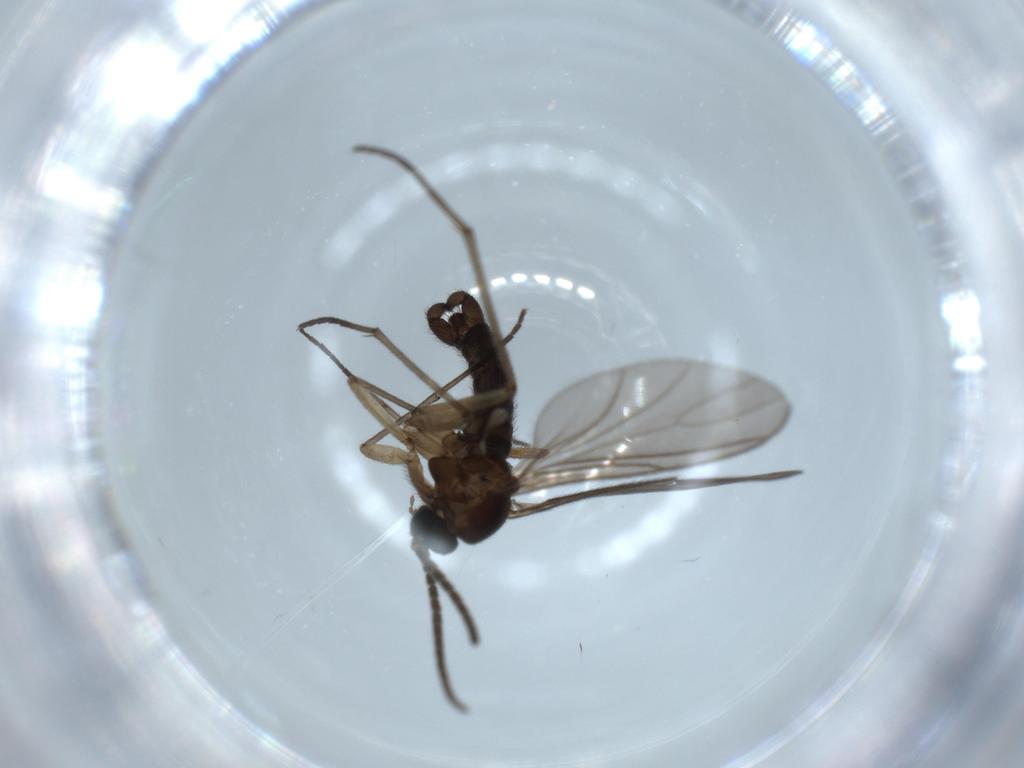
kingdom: Animalia
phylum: Arthropoda
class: Insecta
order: Diptera
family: Sciaridae
